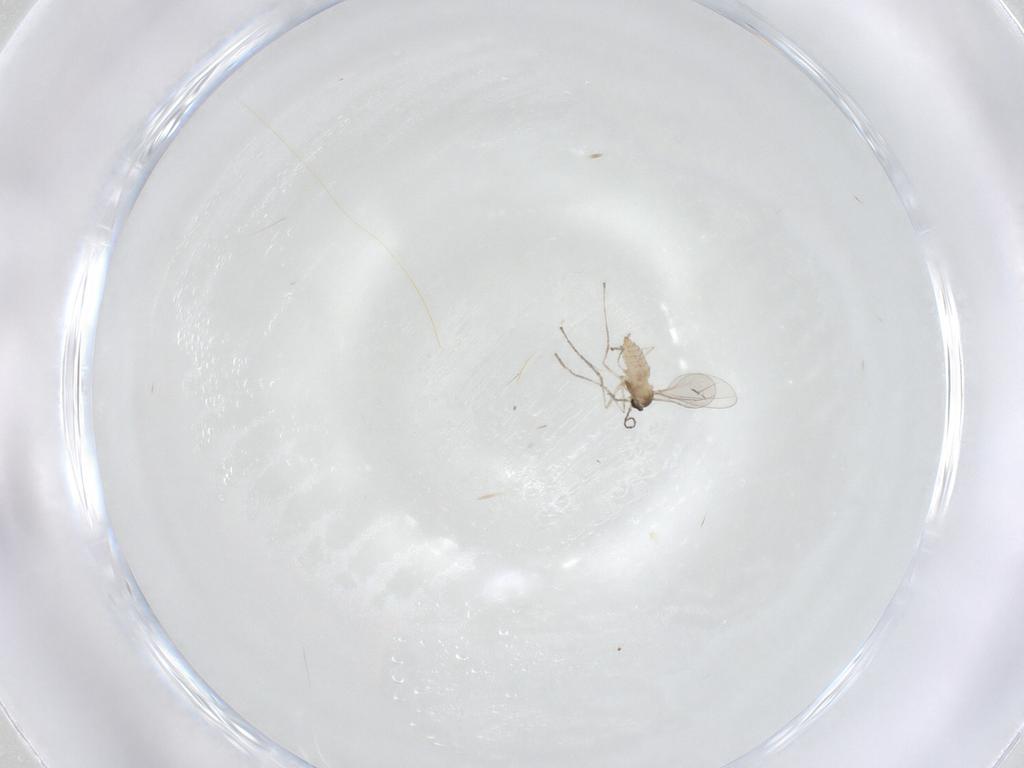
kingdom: Animalia
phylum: Arthropoda
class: Insecta
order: Diptera
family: Cecidomyiidae
